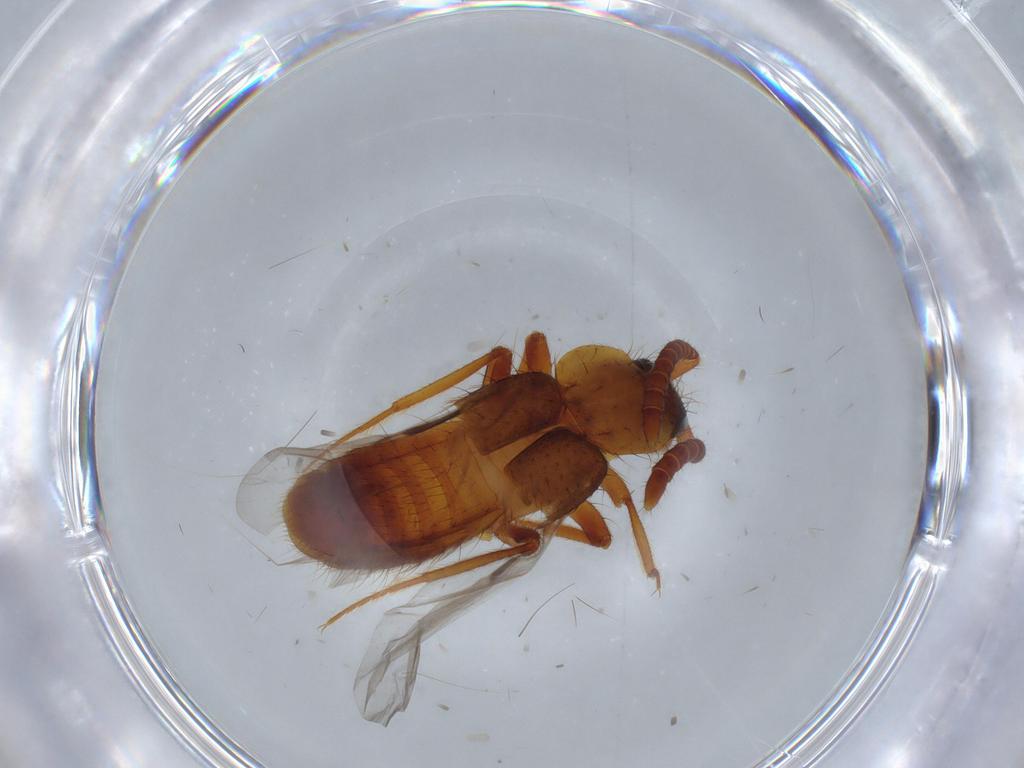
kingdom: Animalia
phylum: Arthropoda
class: Insecta
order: Coleoptera
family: Staphylinidae
